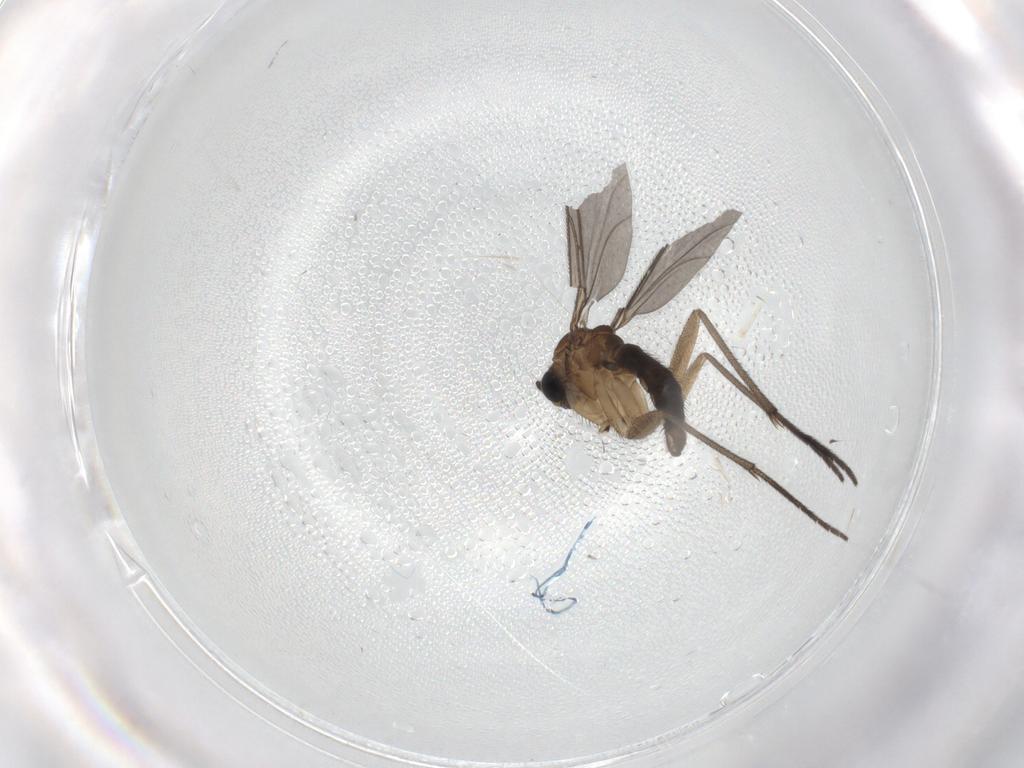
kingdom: Animalia
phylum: Arthropoda
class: Insecta
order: Diptera
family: Sciaridae
